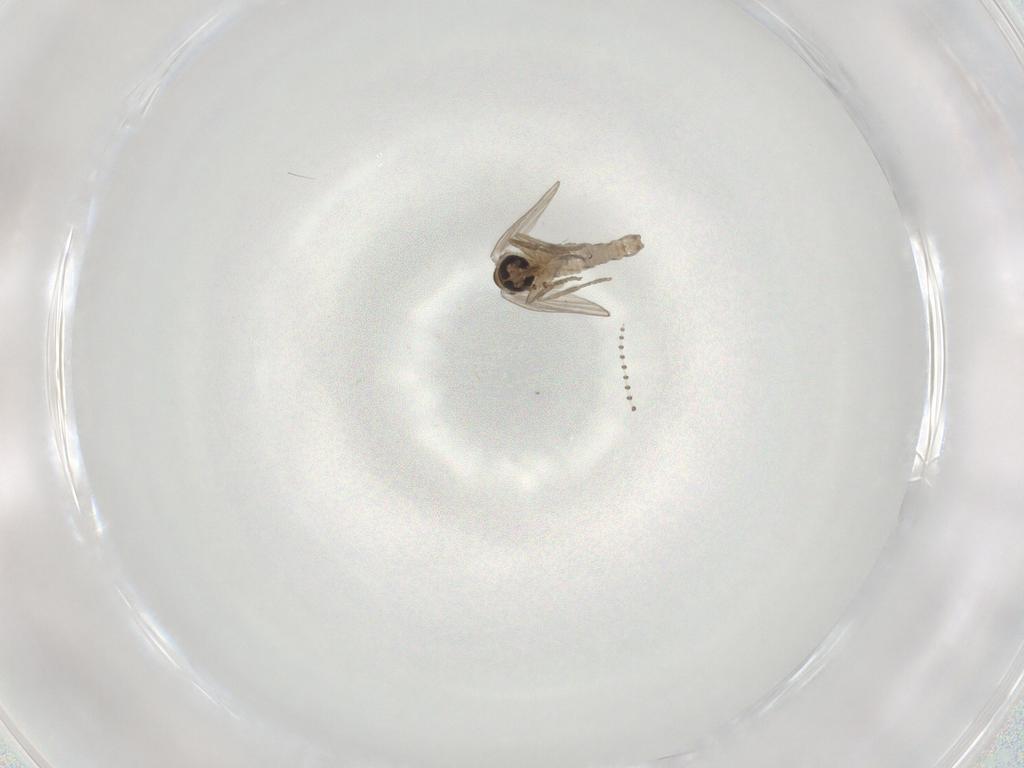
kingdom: Animalia
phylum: Arthropoda
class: Insecta
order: Diptera
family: Psychodidae
